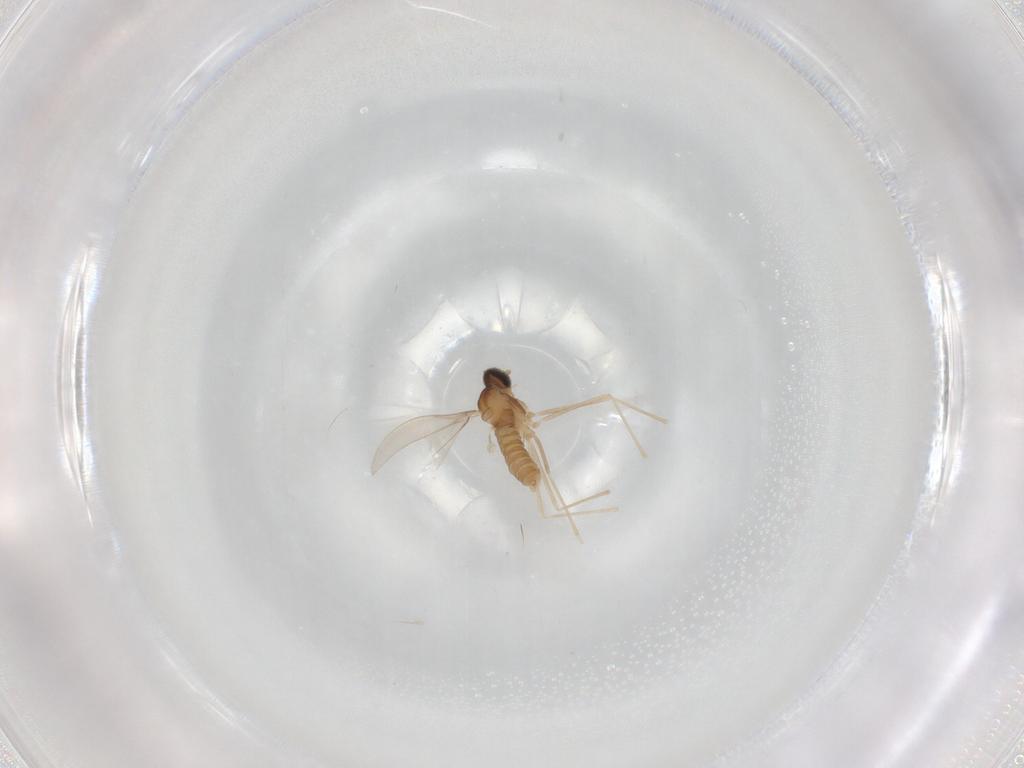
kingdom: Animalia
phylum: Arthropoda
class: Insecta
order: Diptera
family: Cecidomyiidae
